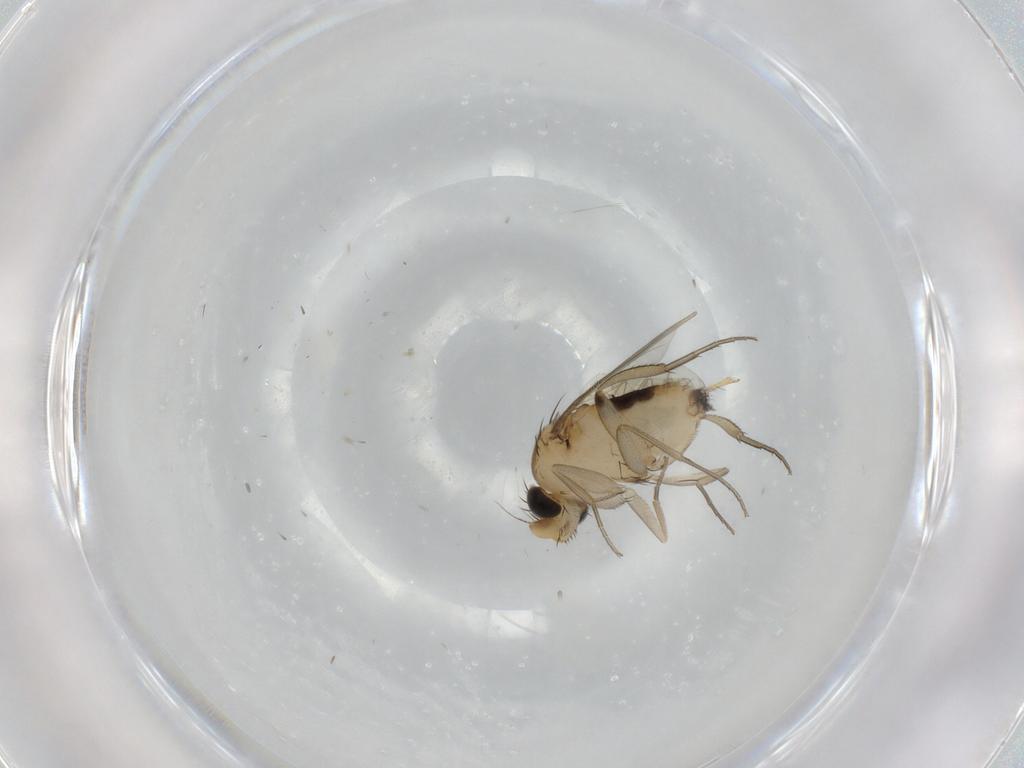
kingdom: Animalia
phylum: Arthropoda
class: Insecta
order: Diptera
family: Phoridae
